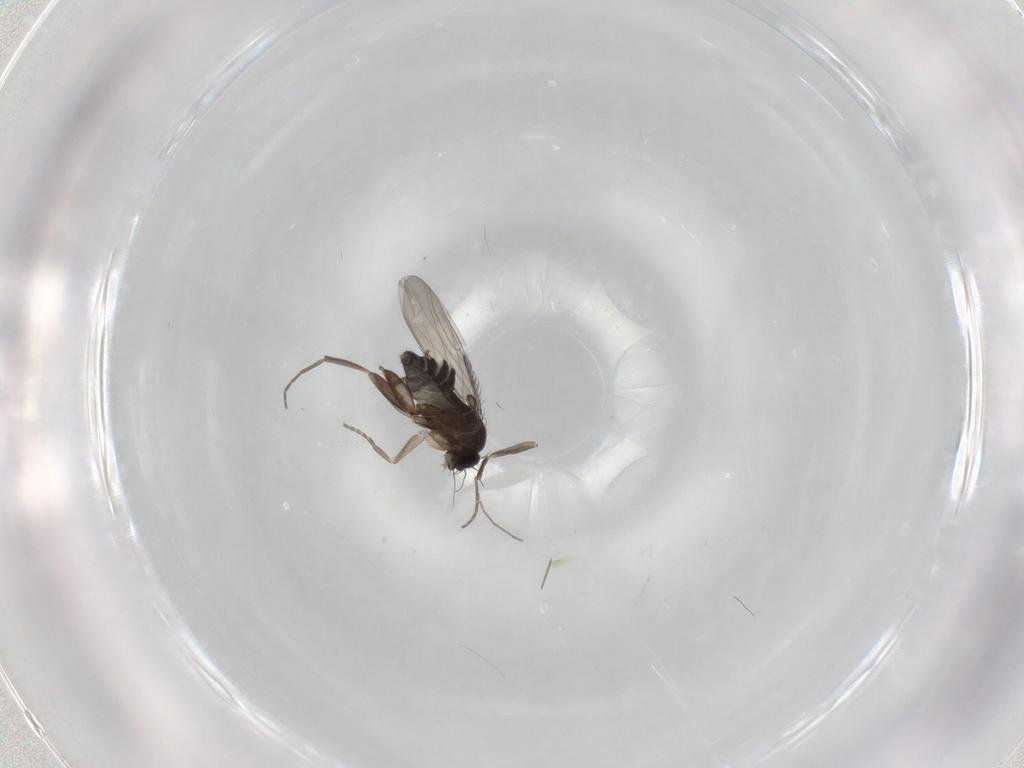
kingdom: Animalia
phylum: Arthropoda
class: Insecta
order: Diptera
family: Phoridae
